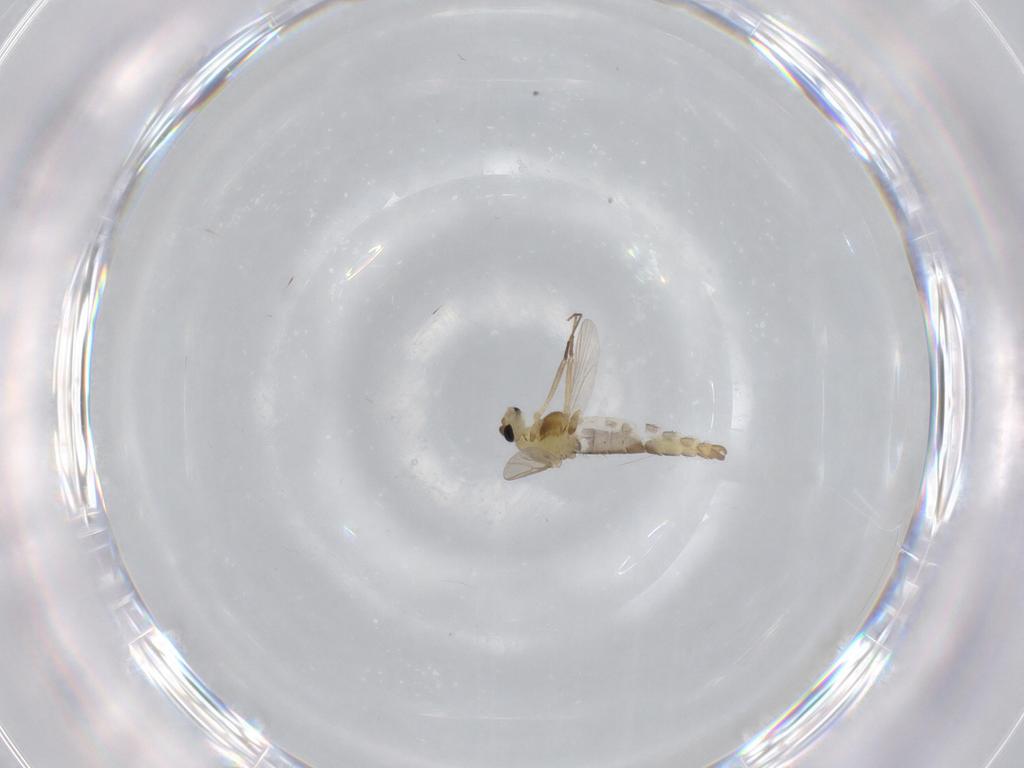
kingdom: Animalia
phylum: Arthropoda
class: Insecta
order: Diptera
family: Chironomidae
